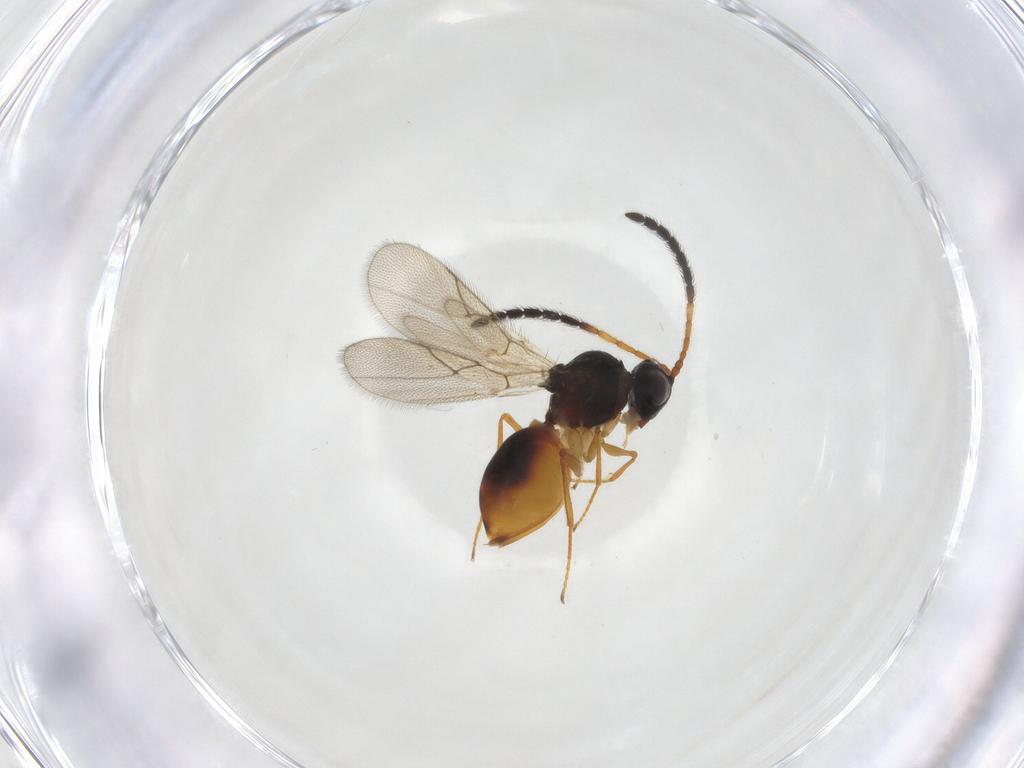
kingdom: Animalia
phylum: Arthropoda
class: Insecta
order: Hymenoptera
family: Figitidae
